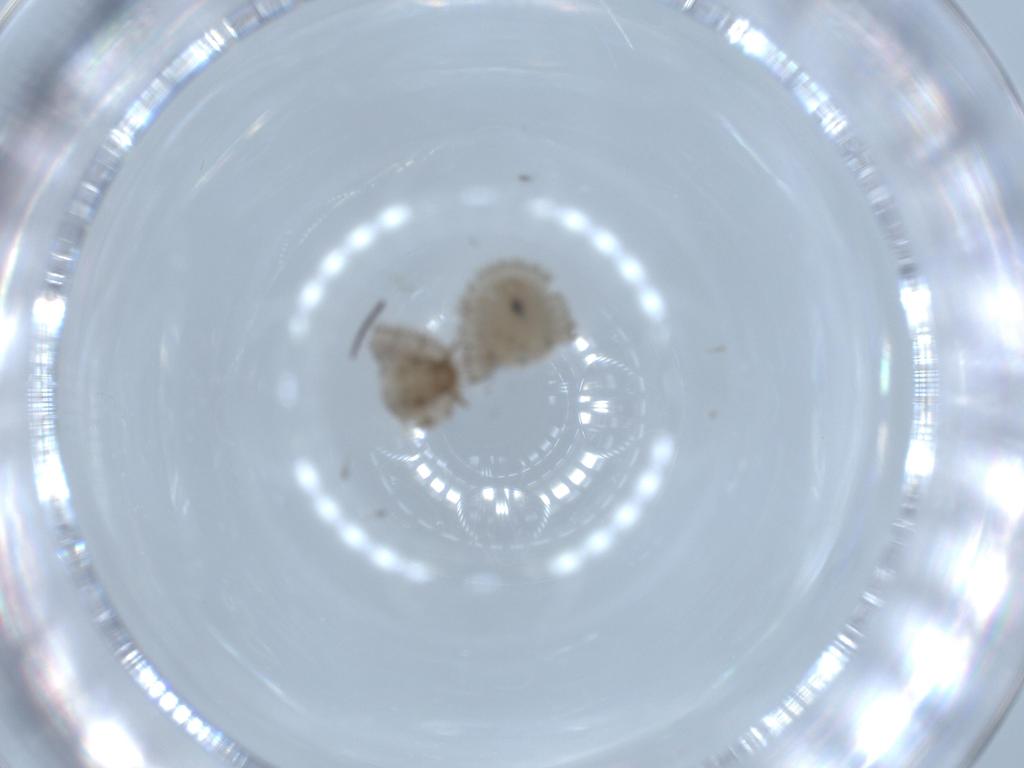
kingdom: Animalia
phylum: Arthropoda
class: Insecta
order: Coleoptera
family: Discolomatidae
